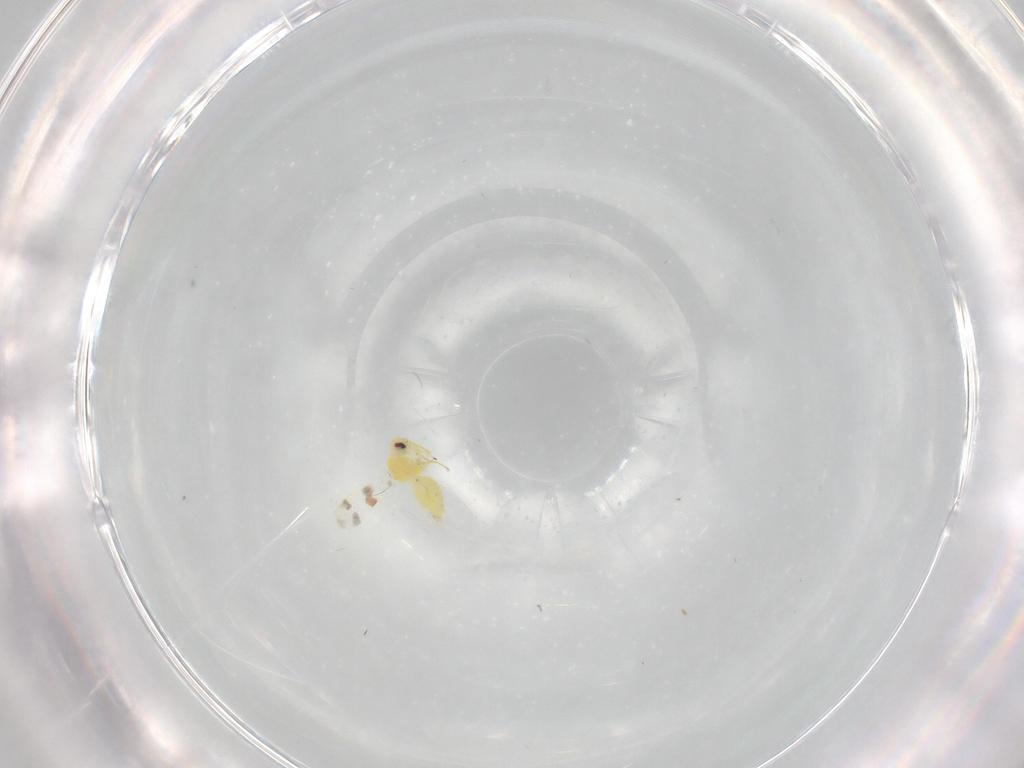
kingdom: Animalia
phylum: Arthropoda
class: Insecta
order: Hemiptera
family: Aleyrodidae
